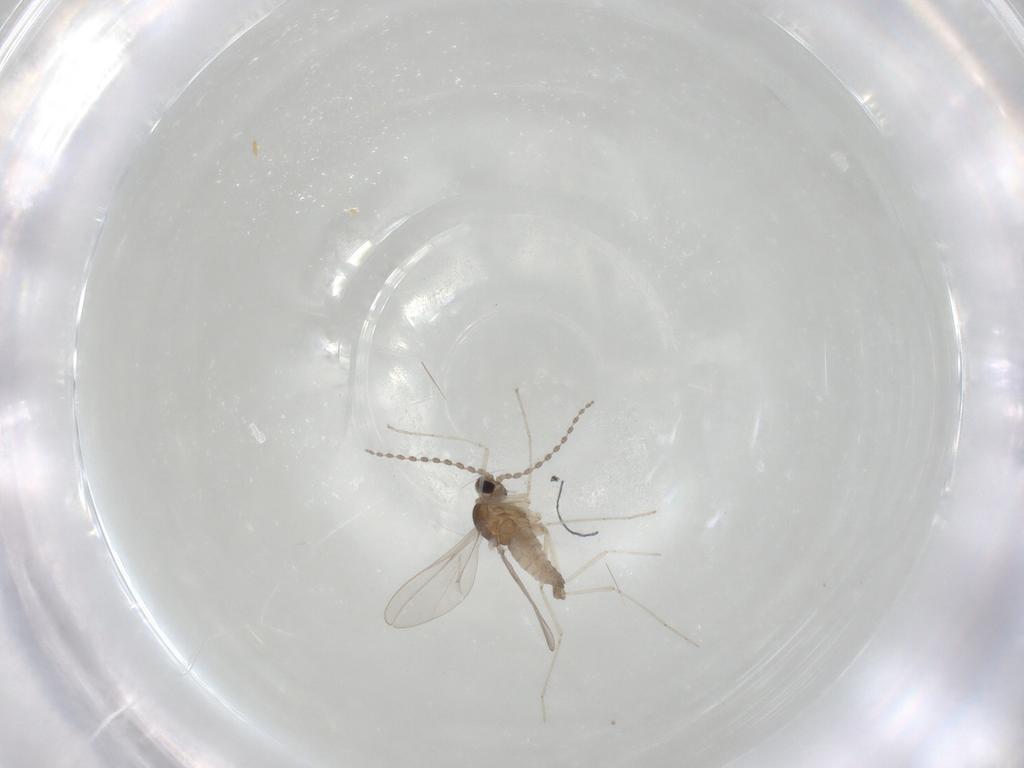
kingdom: Animalia
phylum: Arthropoda
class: Insecta
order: Diptera
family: Cecidomyiidae
